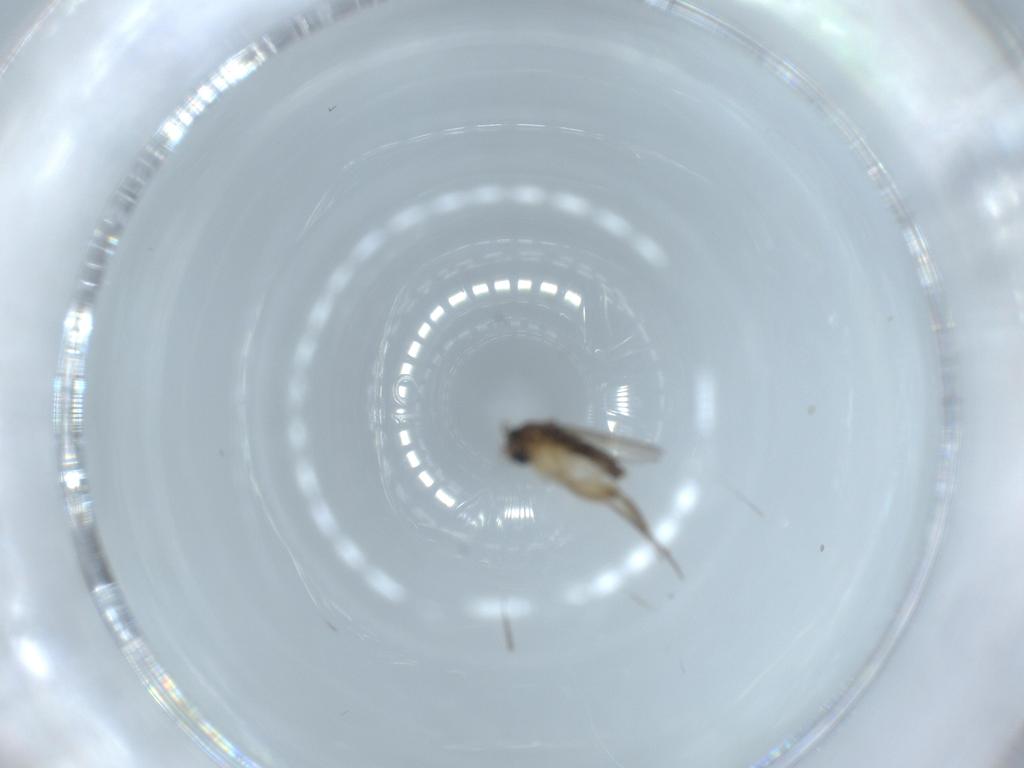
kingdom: Animalia
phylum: Arthropoda
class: Insecta
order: Diptera
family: Phoridae
